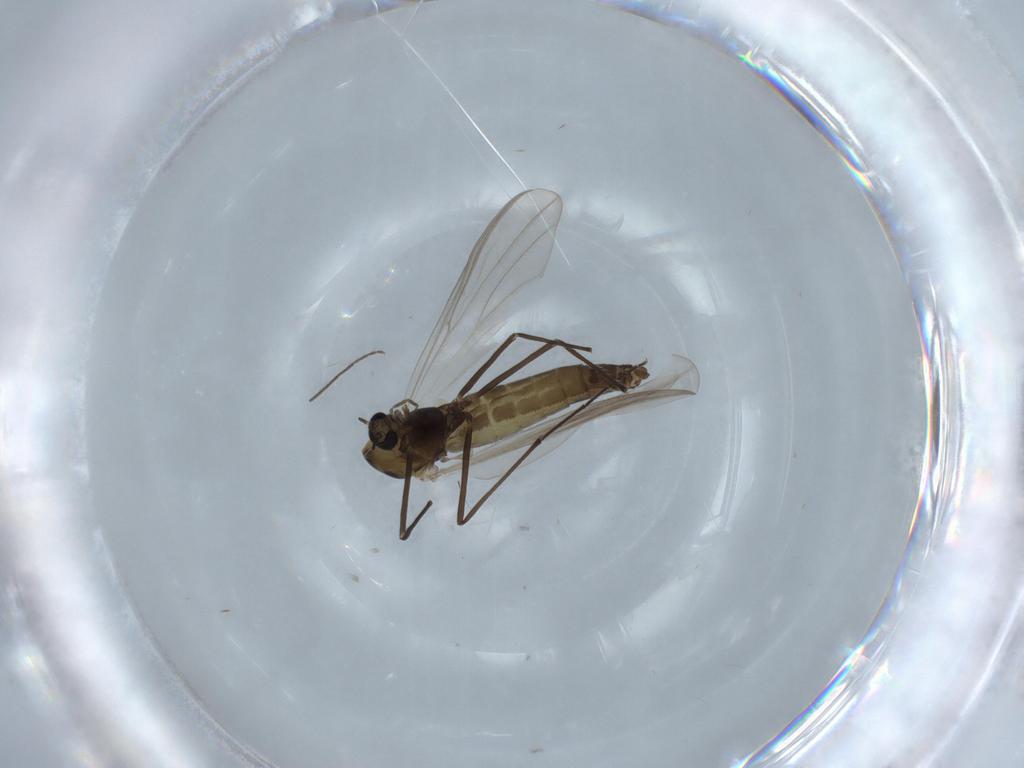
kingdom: Animalia
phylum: Arthropoda
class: Insecta
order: Diptera
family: Chironomidae
